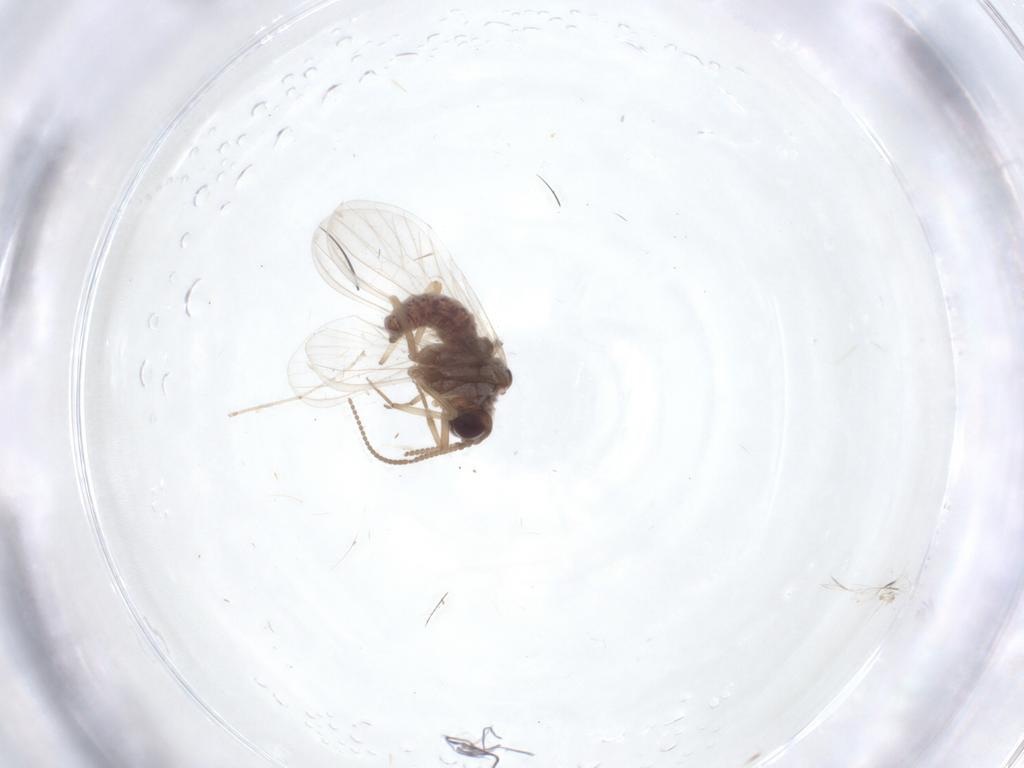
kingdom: Animalia
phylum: Arthropoda
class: Insecta
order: Neuroptera
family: Coniopterygidae
